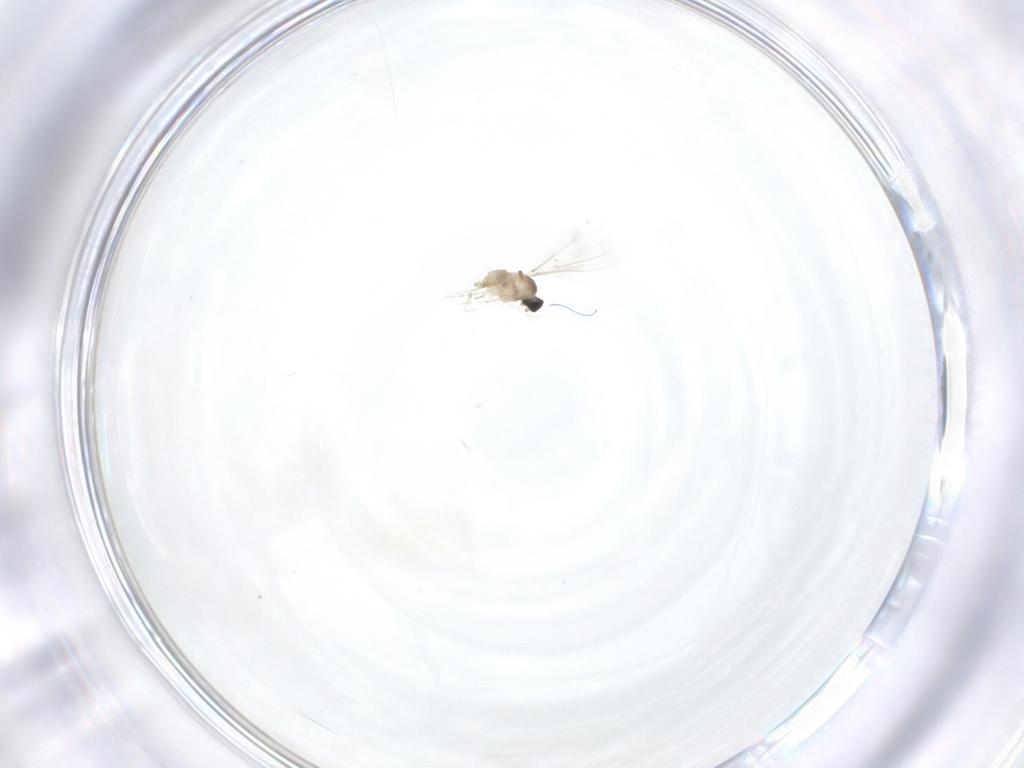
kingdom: Animalia
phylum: Arthropoda
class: Insecta
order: Diptera
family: Cecidomyiidae
